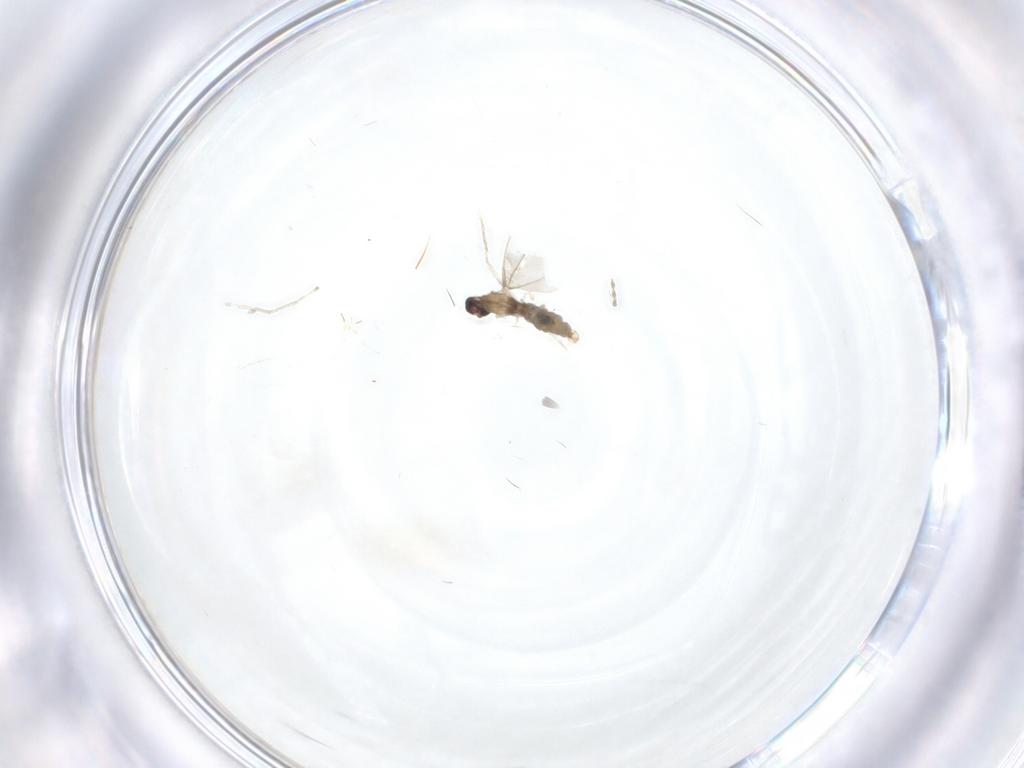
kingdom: Animalia
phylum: Arthropoda
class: Insecta
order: Diptera
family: Cecidomyiidae
